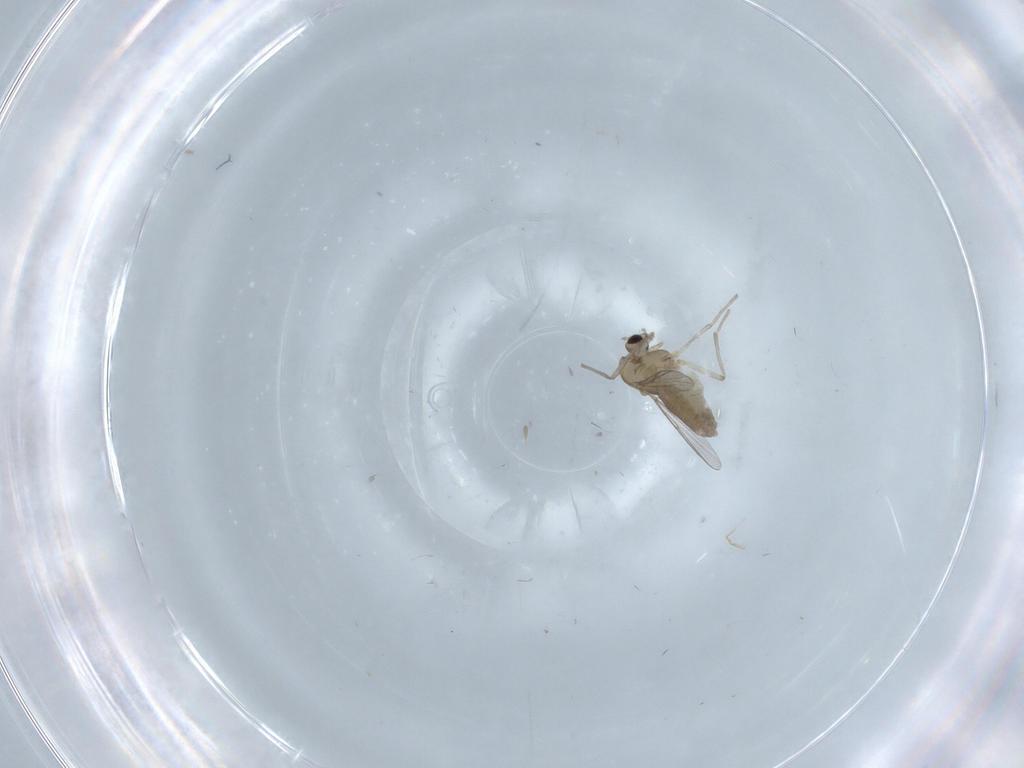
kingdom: Animalia
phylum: Arthropoda
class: Insecta
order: Diptera
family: Chironomidae
